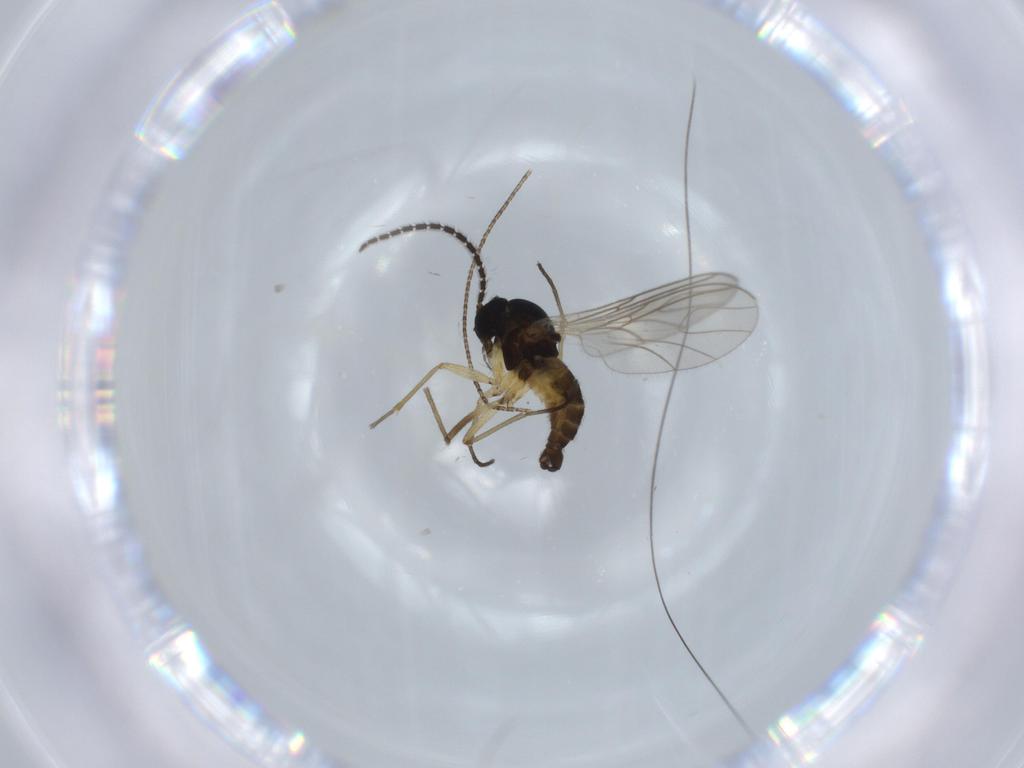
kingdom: Animalia
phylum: Arthropoda
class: Insecta
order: Diptera
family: Sciaridae
